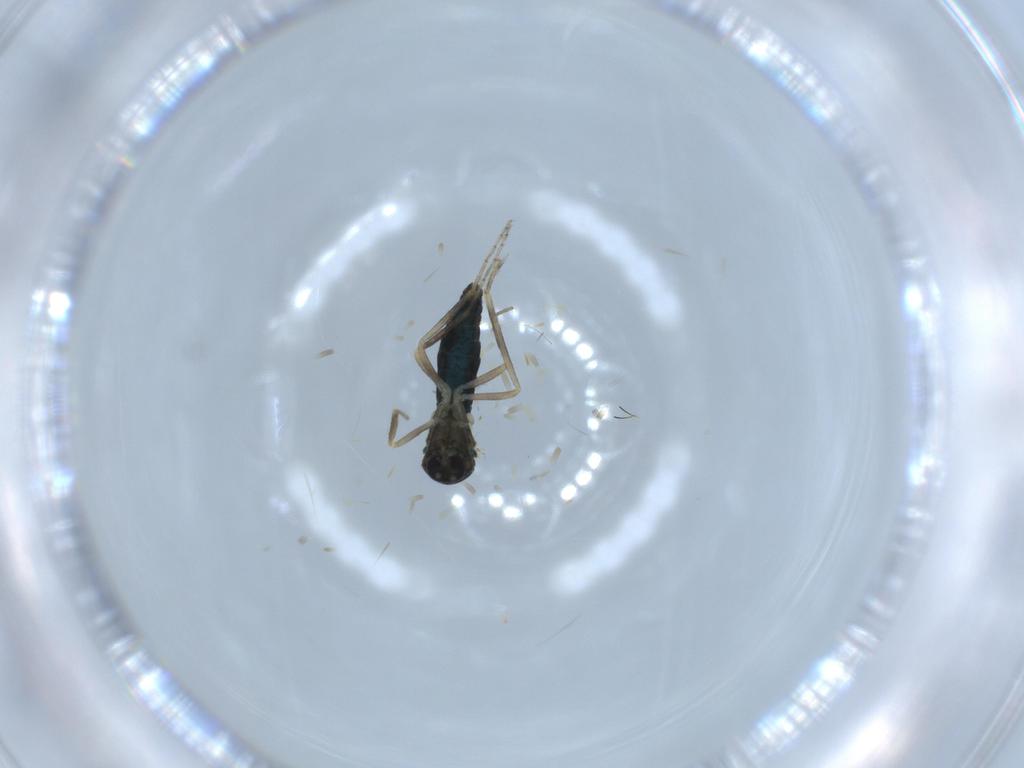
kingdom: Animalia
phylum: Arthropoda
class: Insecta
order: Diptera
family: Ceratopogonidae
